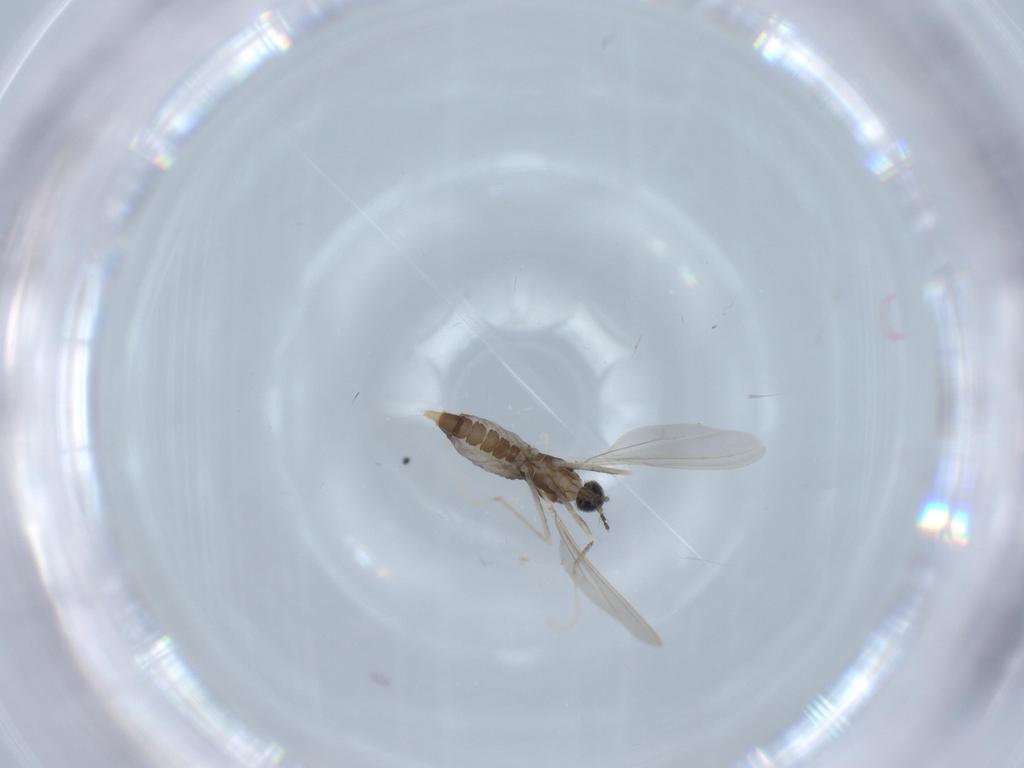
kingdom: Animalia
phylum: Arthropoda
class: Insecta
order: Diptera
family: Cecidomyiidae
